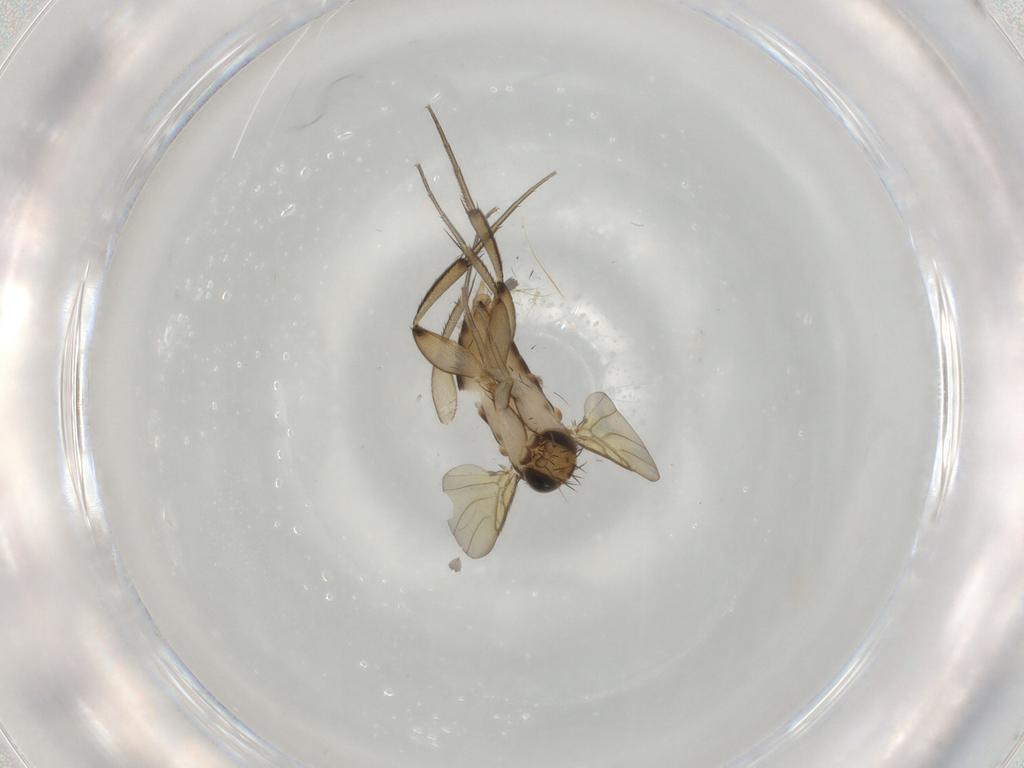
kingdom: Animalia
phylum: Arthropoda
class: Insecta
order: Diptera
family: Phoridae
